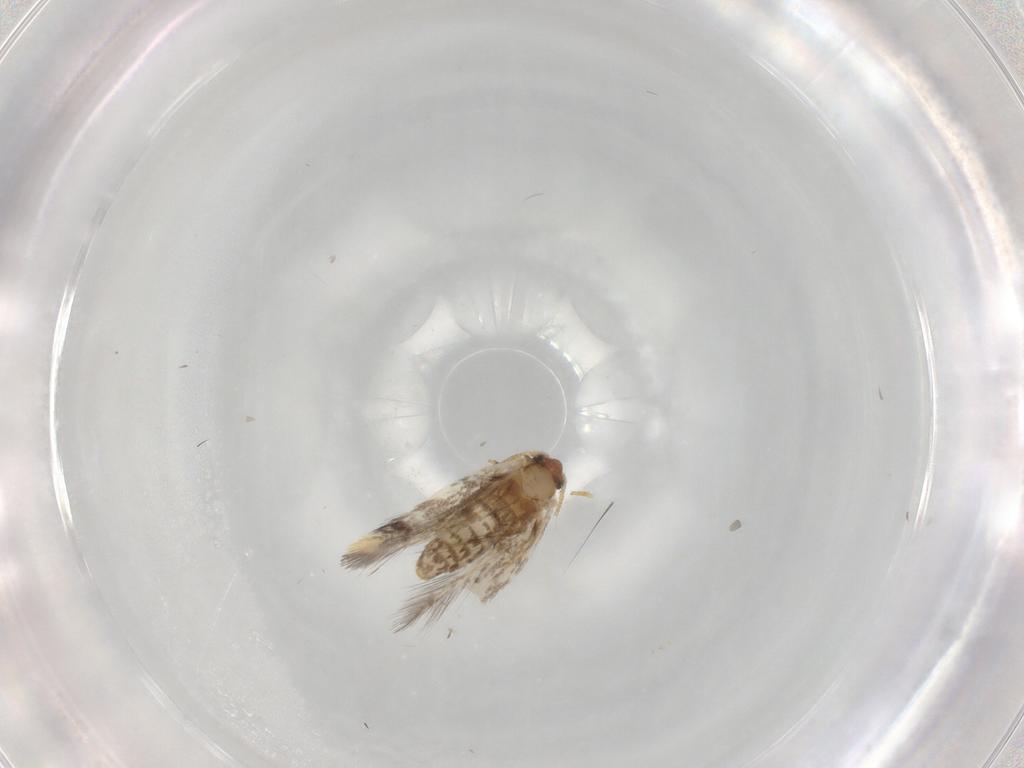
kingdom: Animalia
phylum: Arthropoda
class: Insecta
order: Lepidoptera
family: Nepticulidae
